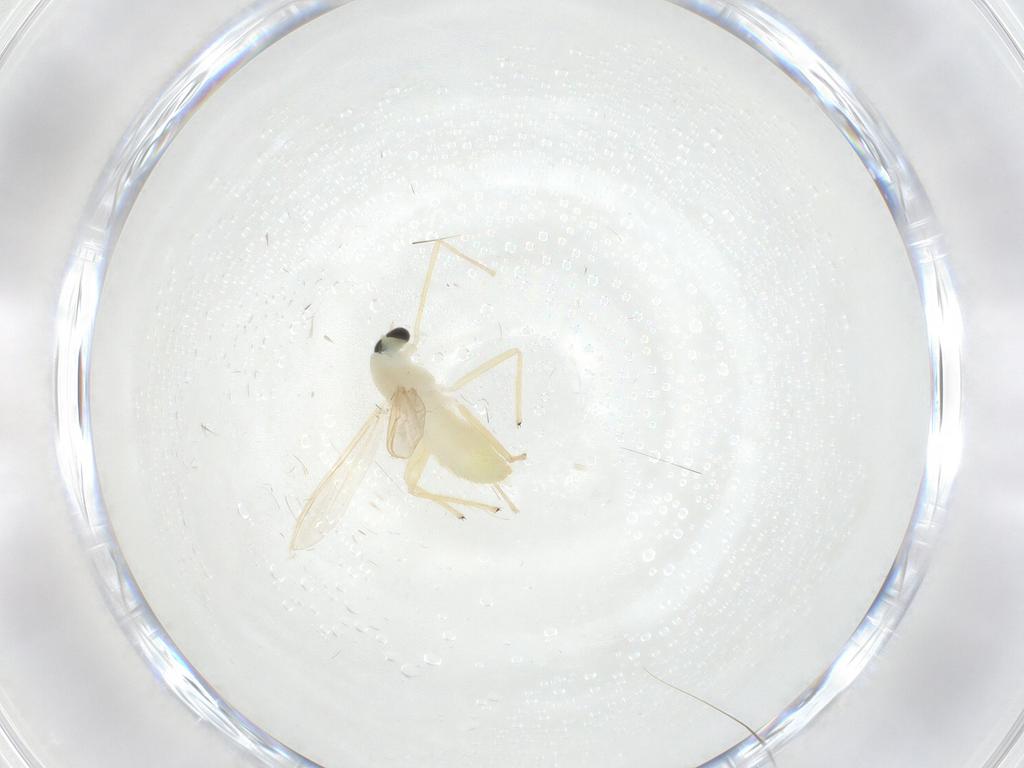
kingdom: Animalia
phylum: Arthropoda
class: Insecta
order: Diptera
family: Chironomidae
